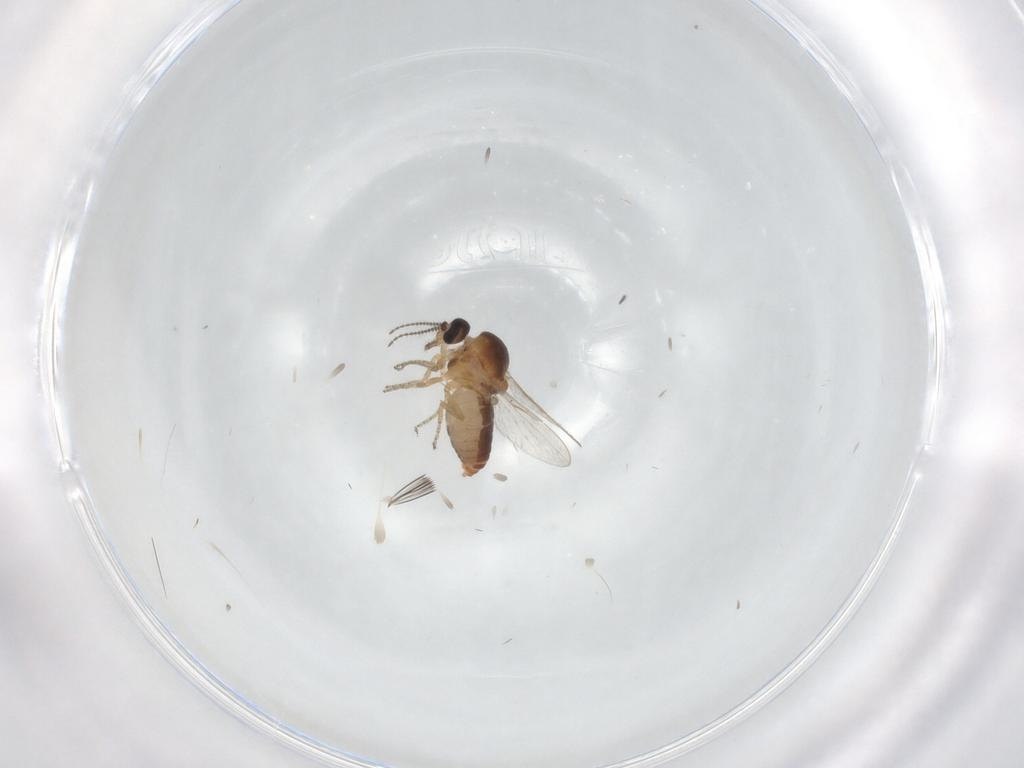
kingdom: Animalia
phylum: Arthropoda
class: Insecta
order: Diptera
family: Ceratopogonidae
